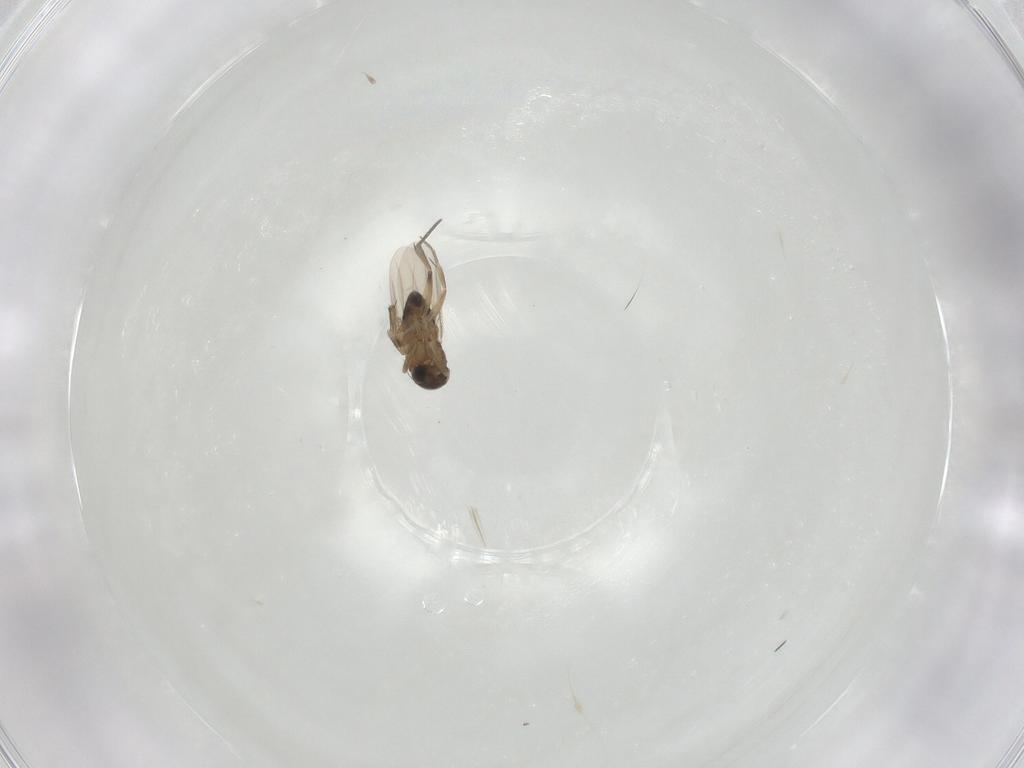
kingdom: Animalia
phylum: Arthropoda
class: Insecta
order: Diptera
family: Phoridae
